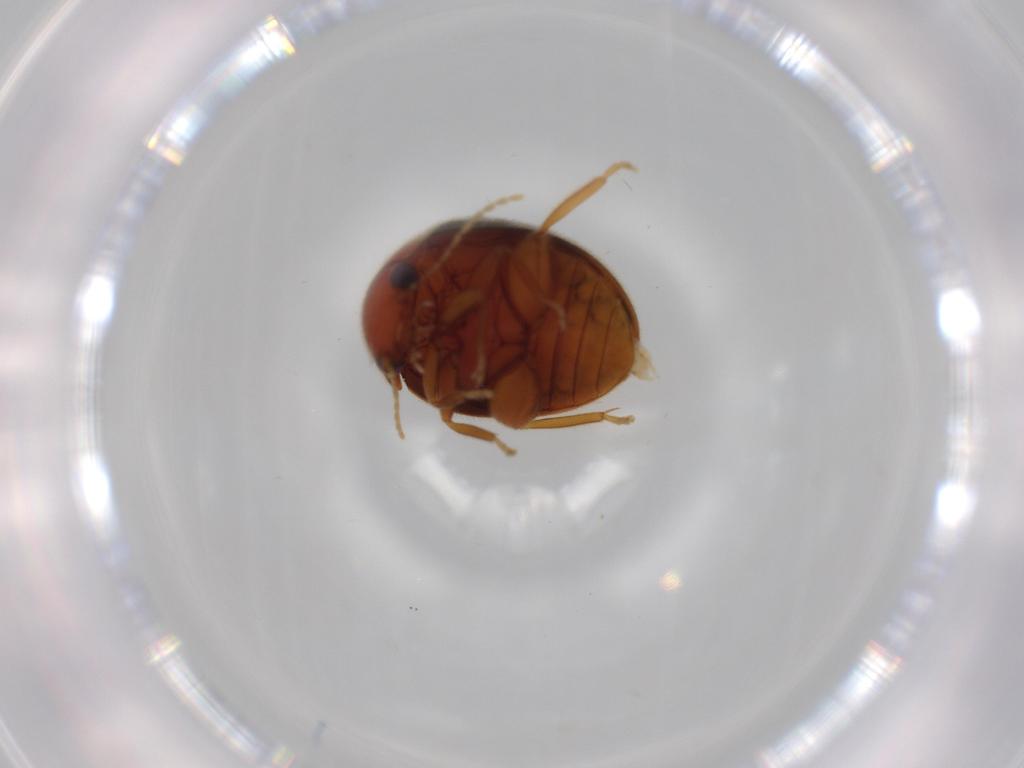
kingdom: Animalia
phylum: Arthropoda
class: Insecta
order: Coleoptera
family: Scirtidae
